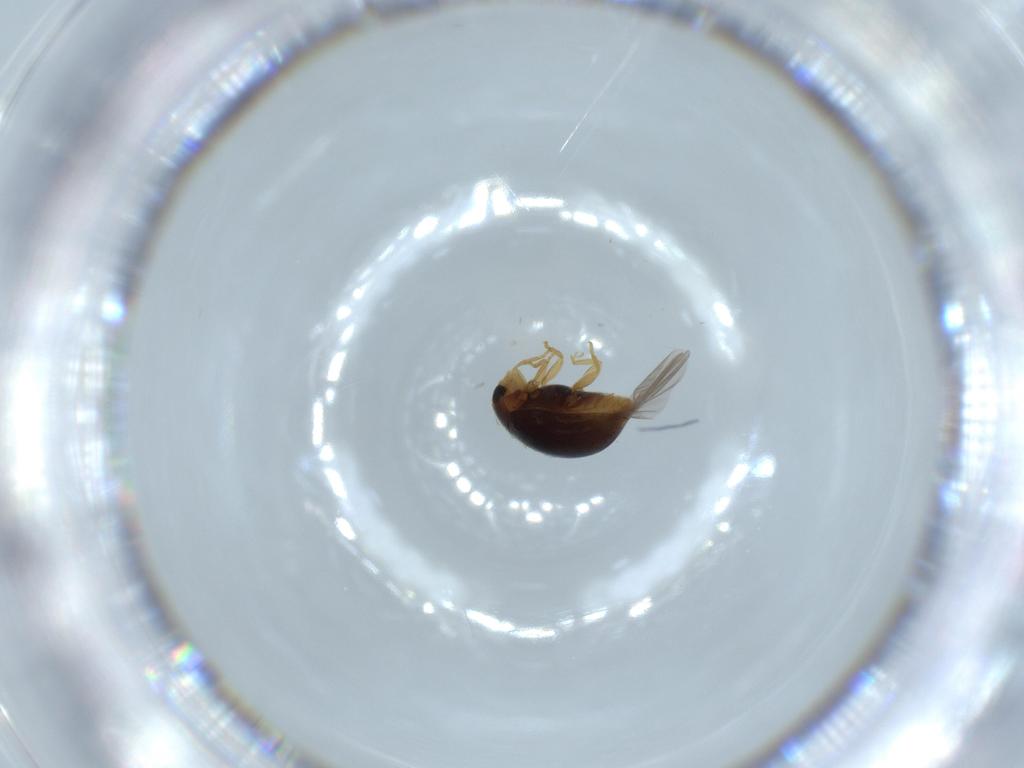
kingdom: Animalia
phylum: Arthropoda
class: Insecta
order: Coleoptera
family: Coccinellidae
